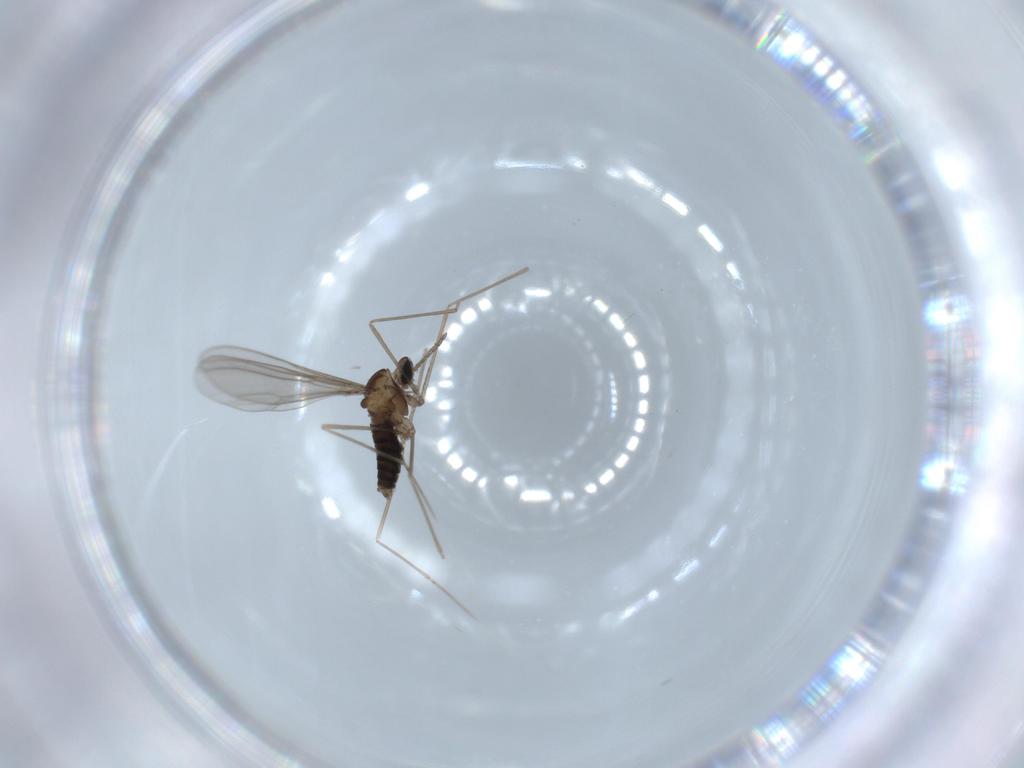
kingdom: Animalia
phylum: Arthropoda
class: Insecta
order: Diptera
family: Cecidomyiidae
